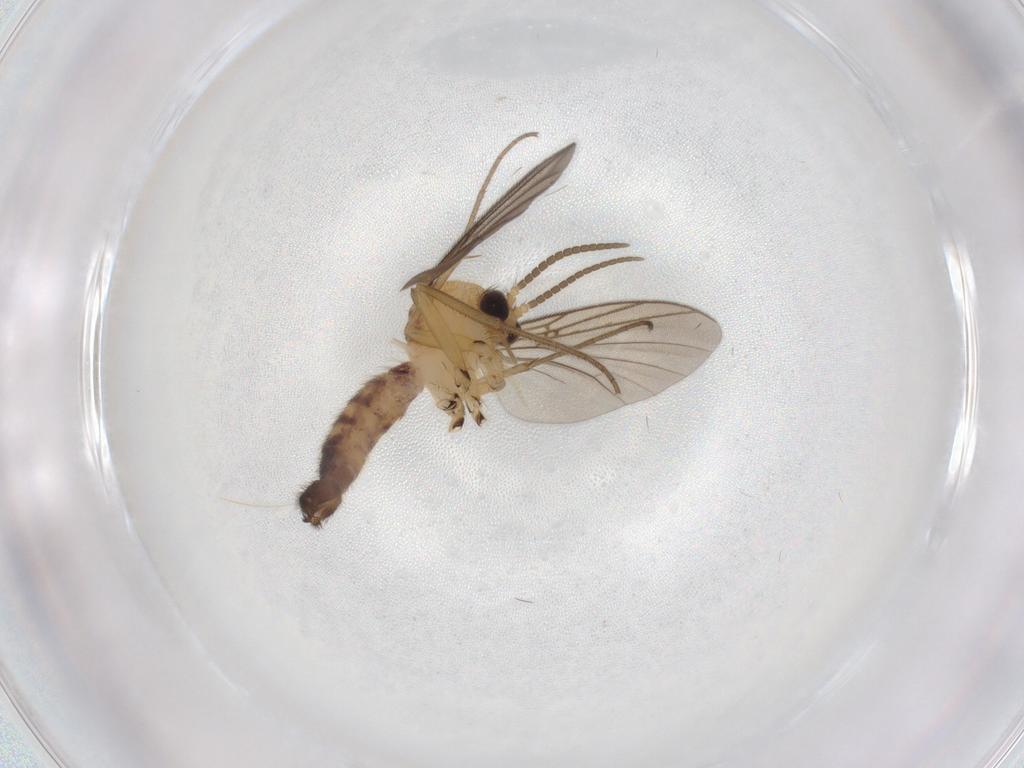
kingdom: Animalia
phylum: Arthropoda
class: Insecta
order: Diptera
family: Mycetophilidae
